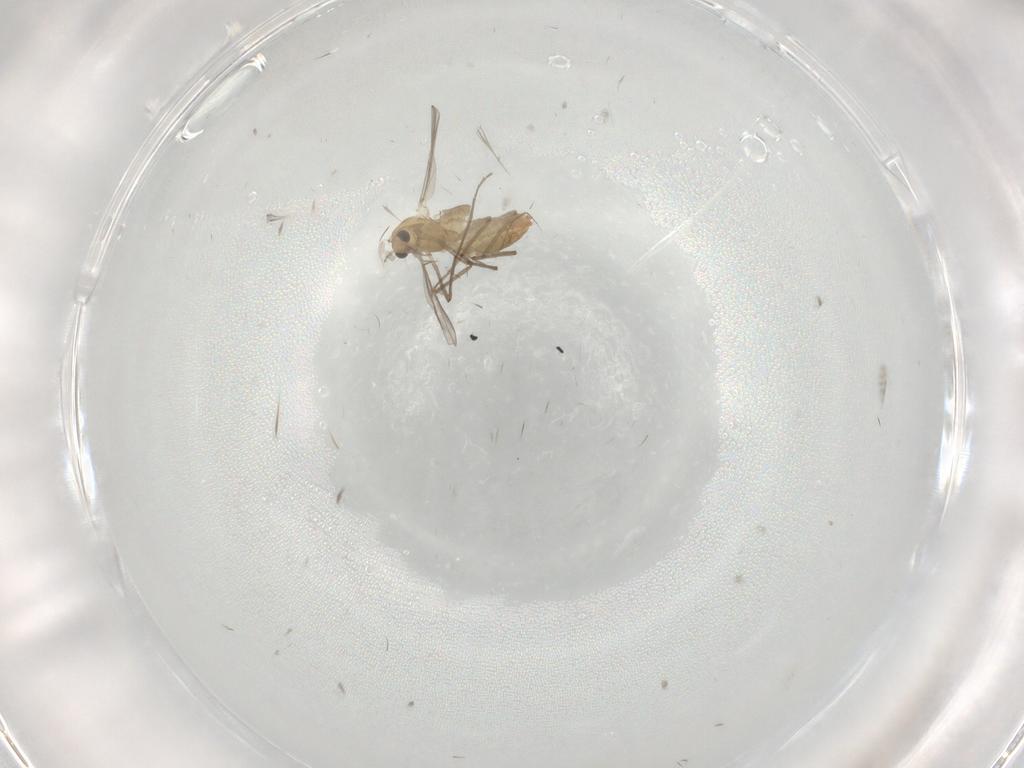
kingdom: Animalia
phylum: Arthropoda
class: Insecta
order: Diptera
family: Chironomidae
